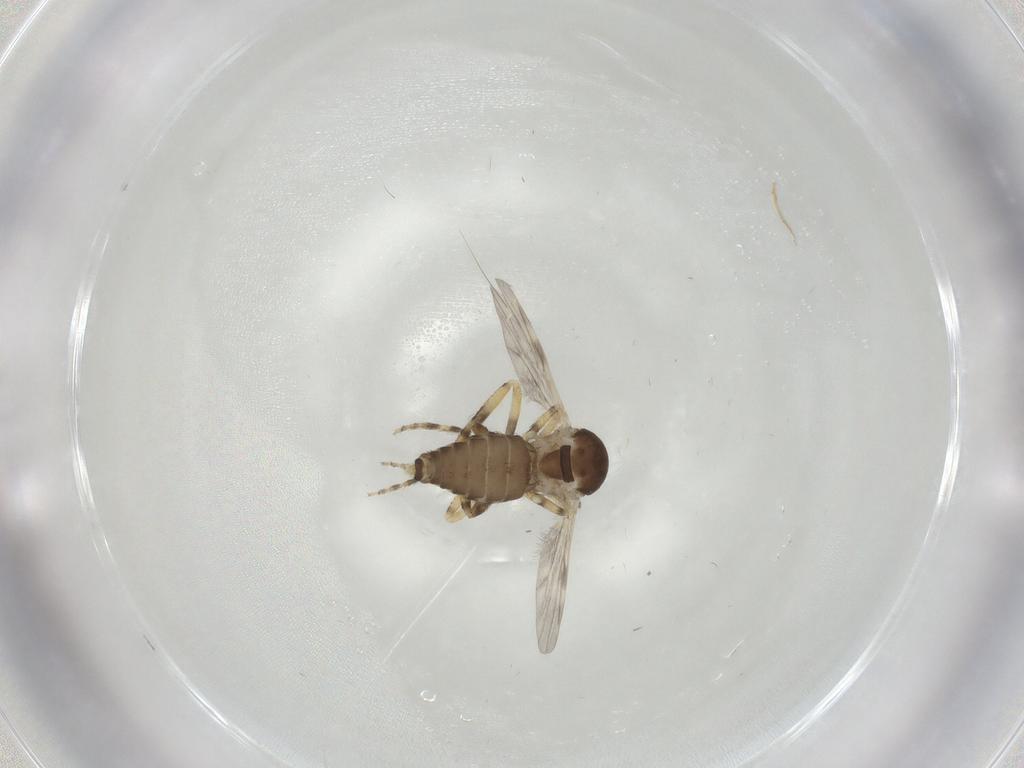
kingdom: Animalia
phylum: Arthropoda
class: Insecta
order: Diptera
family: Ceratopogonidae
